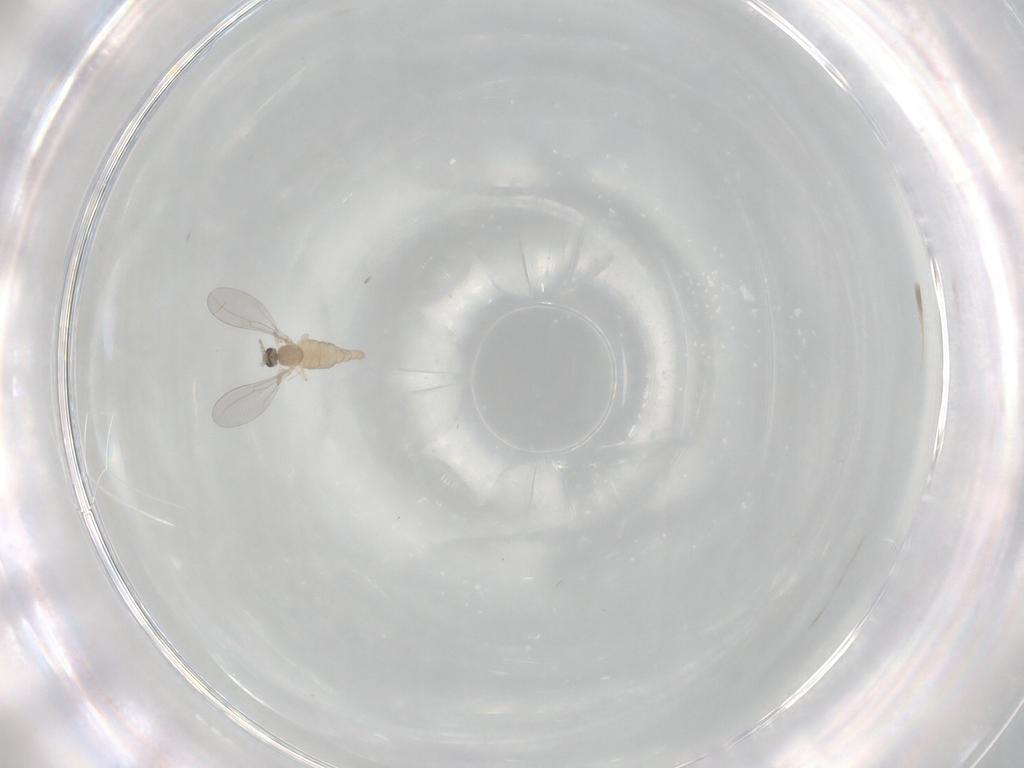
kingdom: Animalia
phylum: Arthropoda
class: Insecta
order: Diptera
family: Cecidomyiidae
